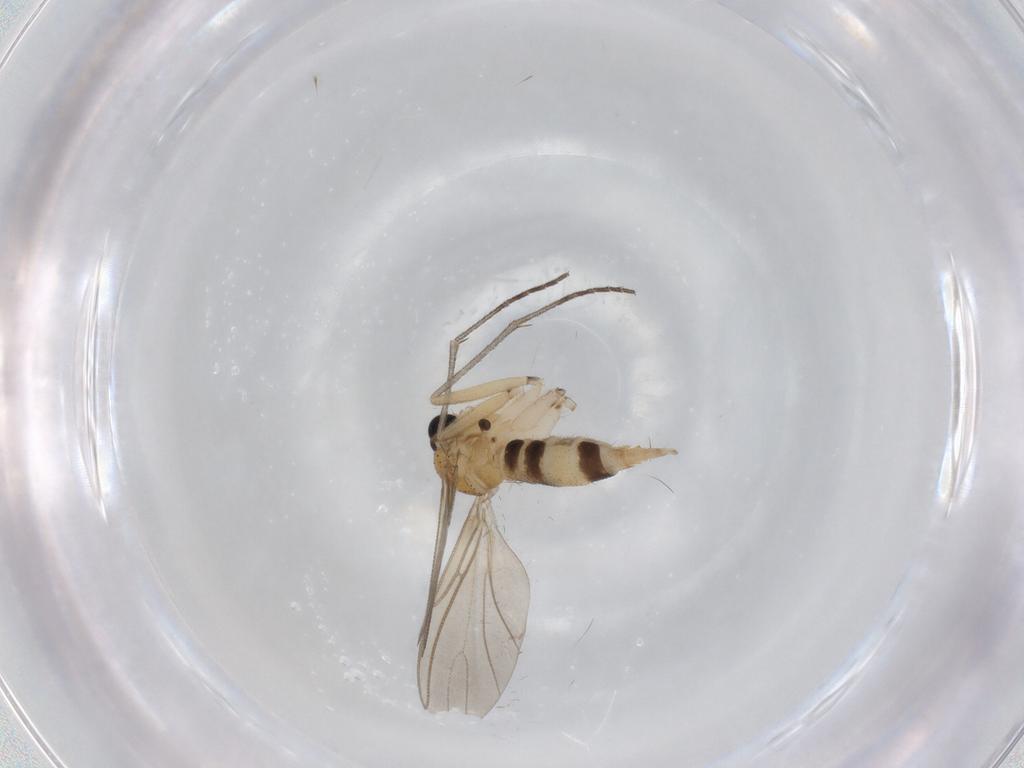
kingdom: Animalia
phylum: Arthropoda
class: Insecta
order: Diptera
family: Sciaridae
